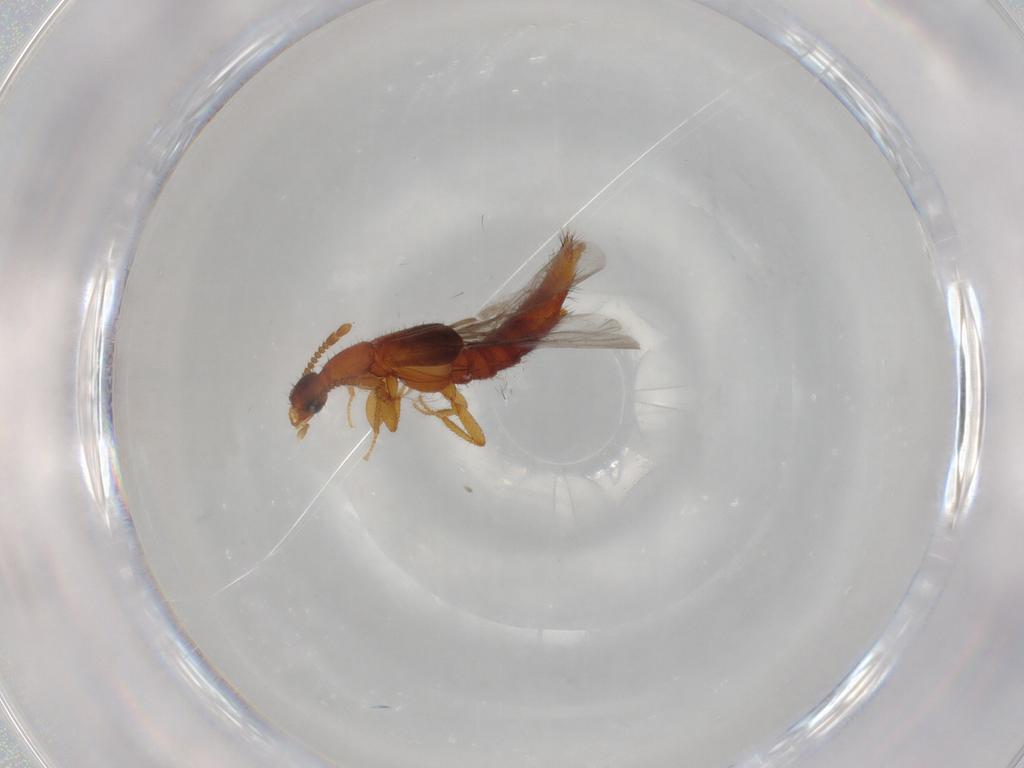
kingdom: Animalia
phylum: Arthropoda
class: Insecta
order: Coleoptera
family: Staphylinidae
